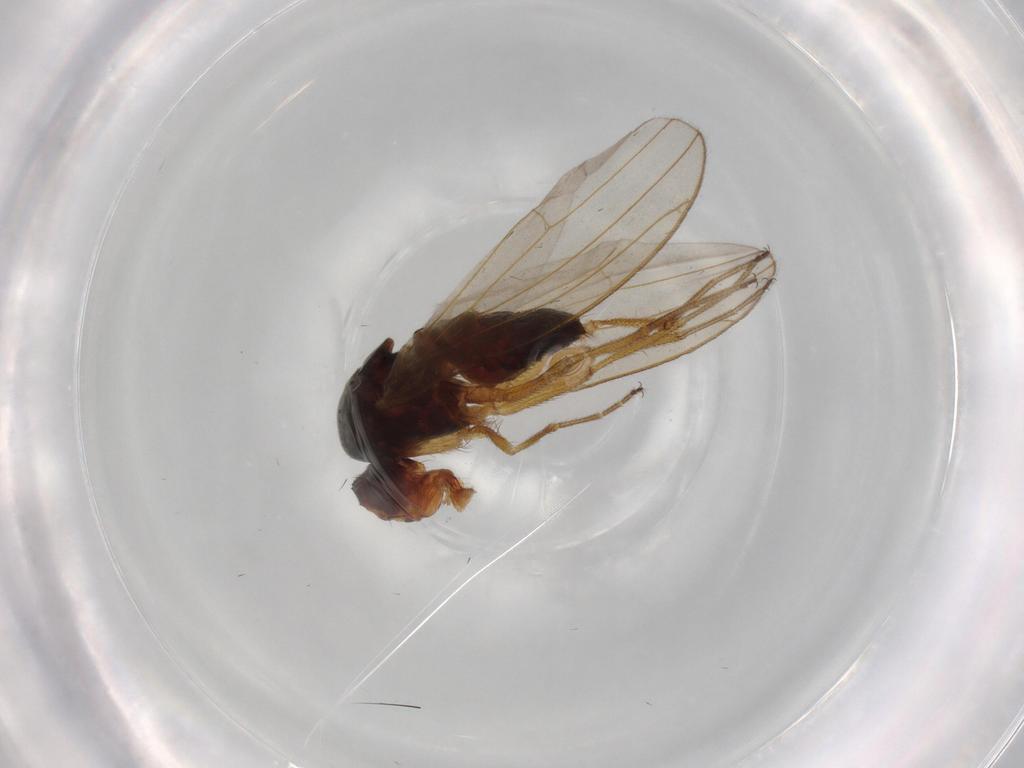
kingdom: Animalia
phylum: Arthropoda
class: Insecta
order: Diptera
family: Drosophilidae
